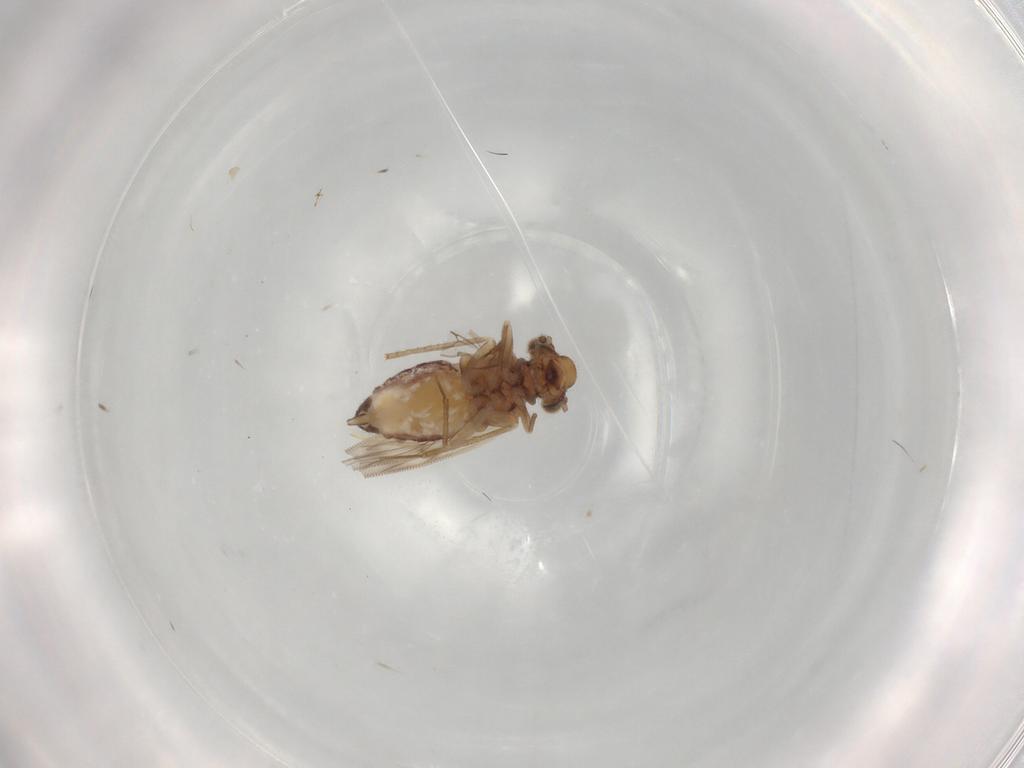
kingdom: Animalia
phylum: Arthropoda
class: Insecta
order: Psocodea
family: Lepidopsocidae
